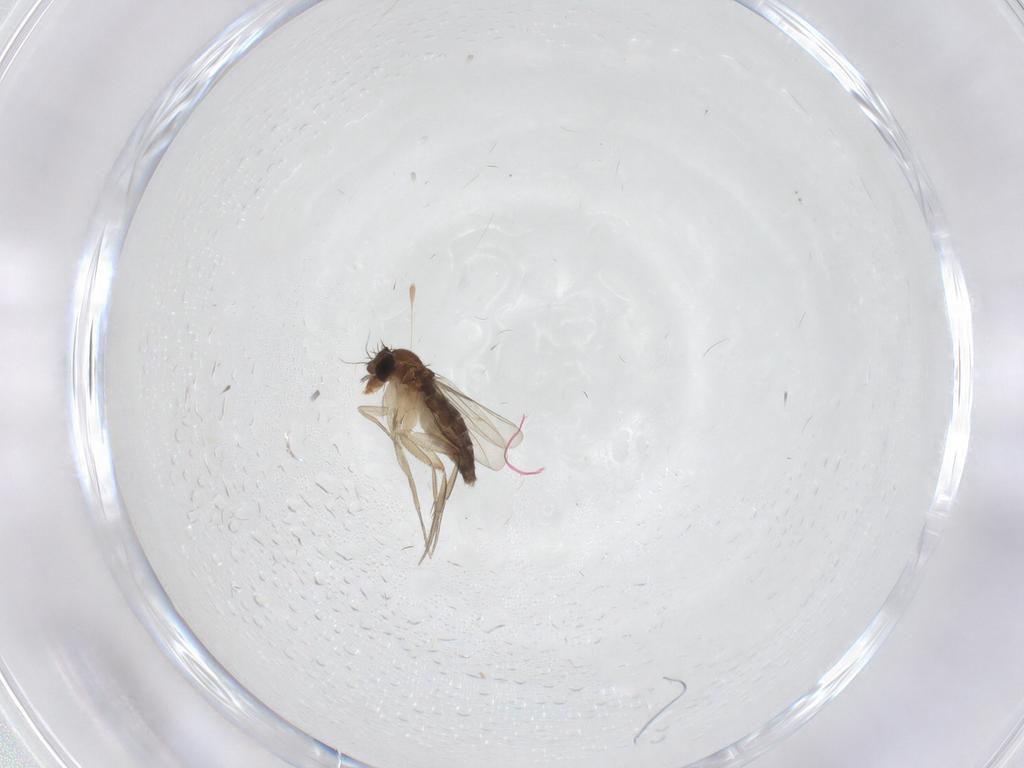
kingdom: Animalia
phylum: Arthropoda
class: Insecta
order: Diptera
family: Phoridae
